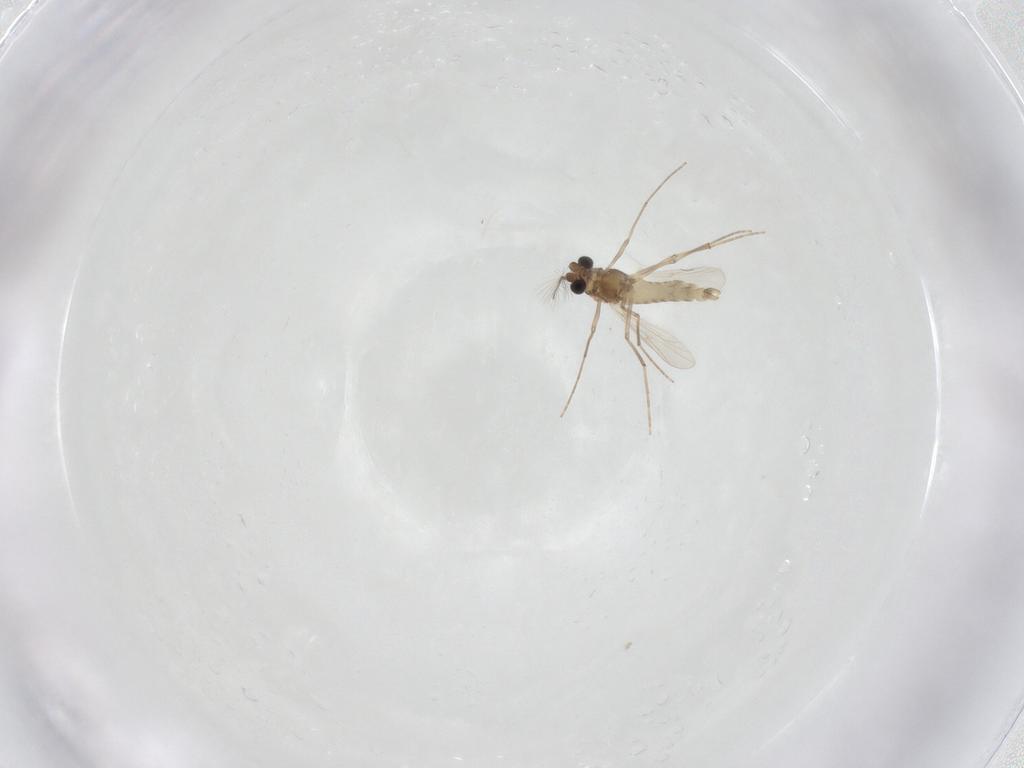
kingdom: Animalia
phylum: Arthropoda
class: Insecta
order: Diptera
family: Chironomidae
